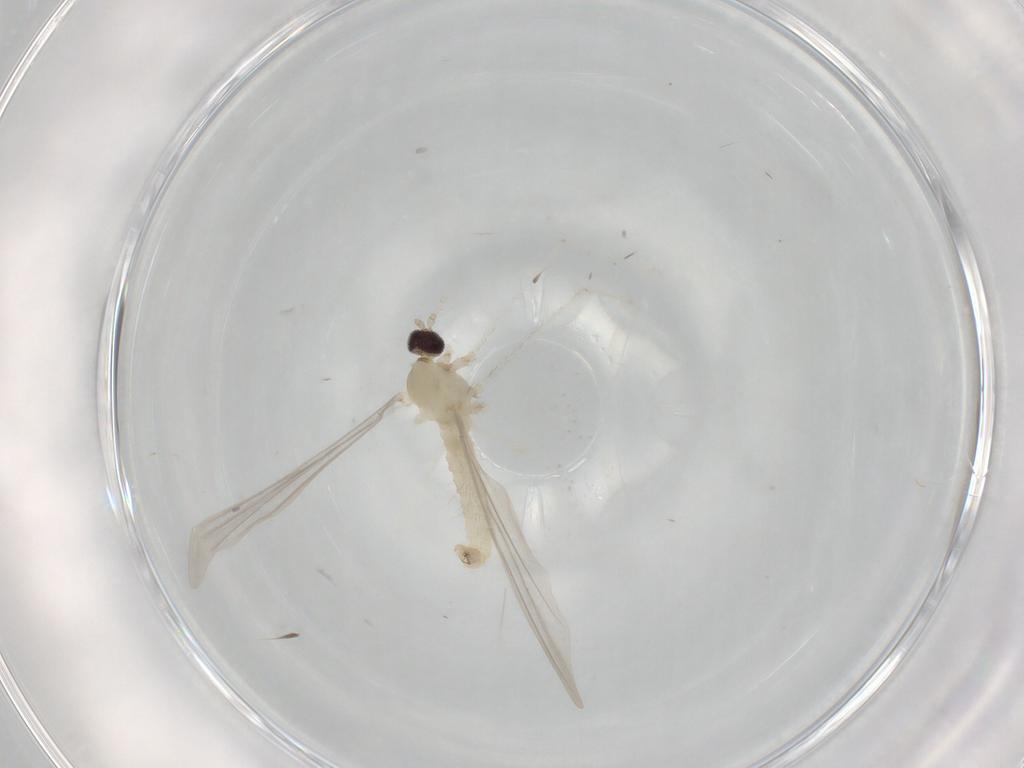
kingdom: Animalia
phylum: Arthropoda
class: Insecta
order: Diptera
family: Cecidomyiidae
